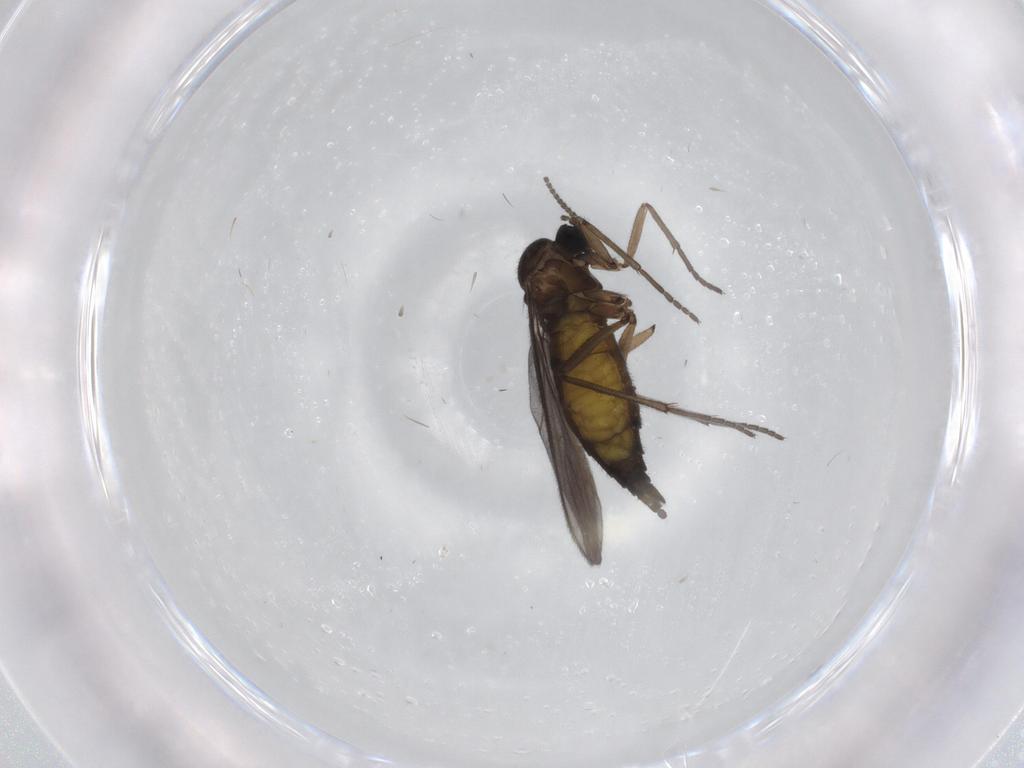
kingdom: Animalia
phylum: Arthropoda
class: Insecta
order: Diptera
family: Sciaridae
